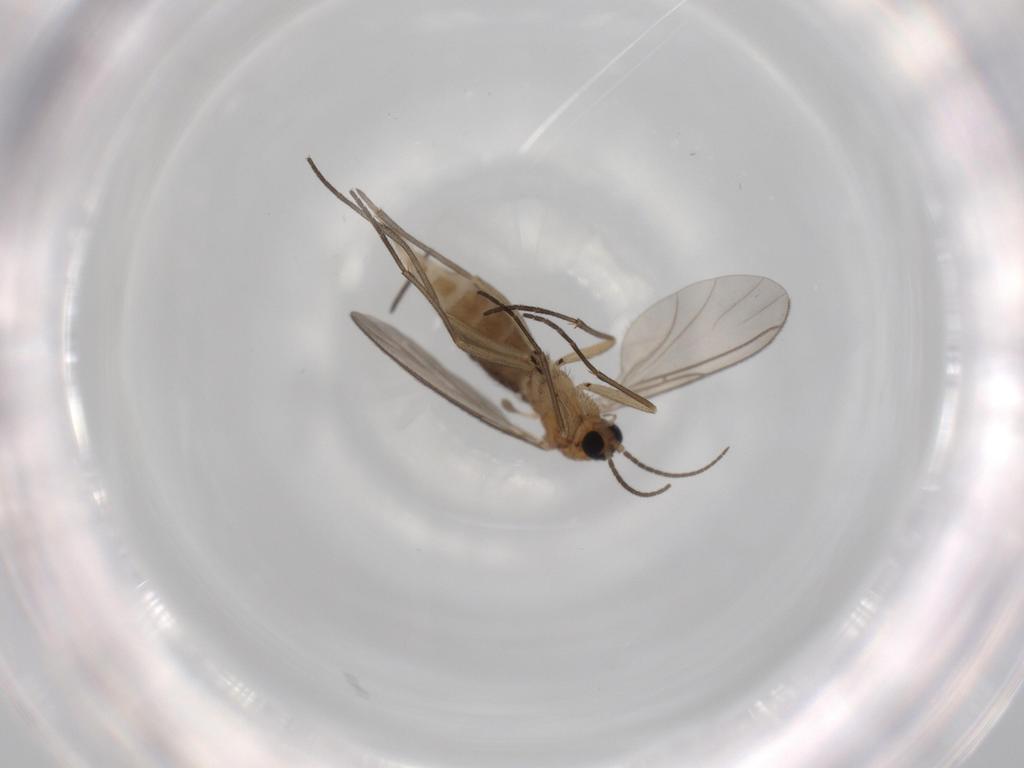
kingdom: Animalia
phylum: Arthropoda
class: Insecta
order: Diptera
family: Sciaridae
